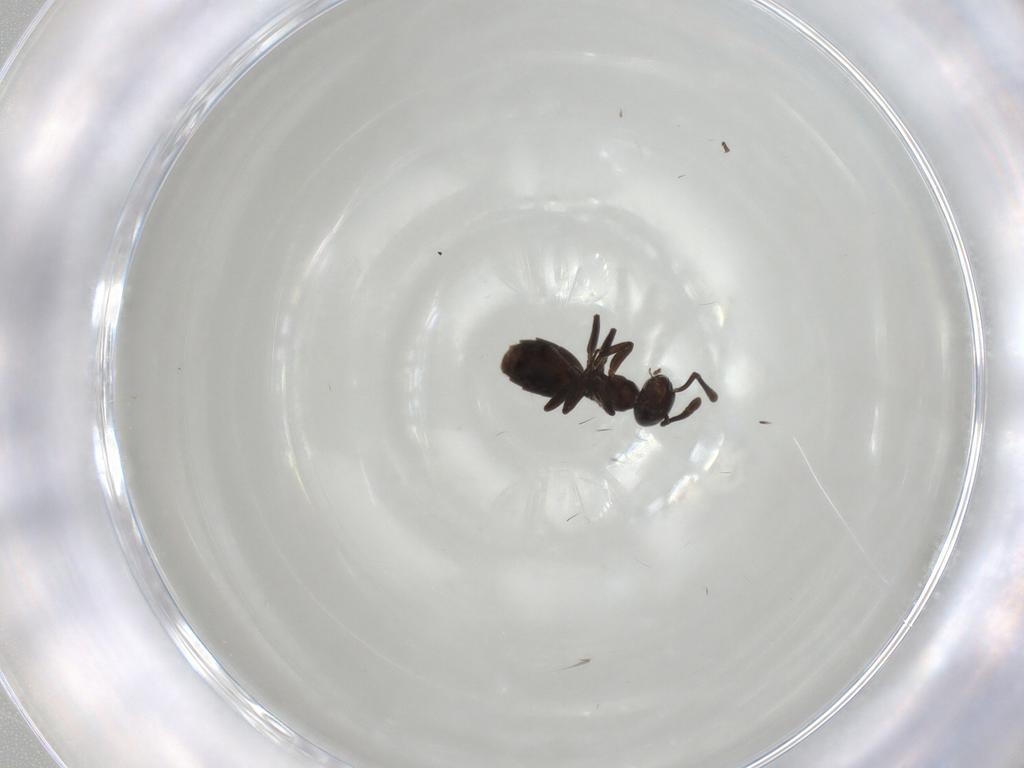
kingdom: Animalia
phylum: Arthropoda
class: Insecta
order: Hymenoptera
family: Formicidae
